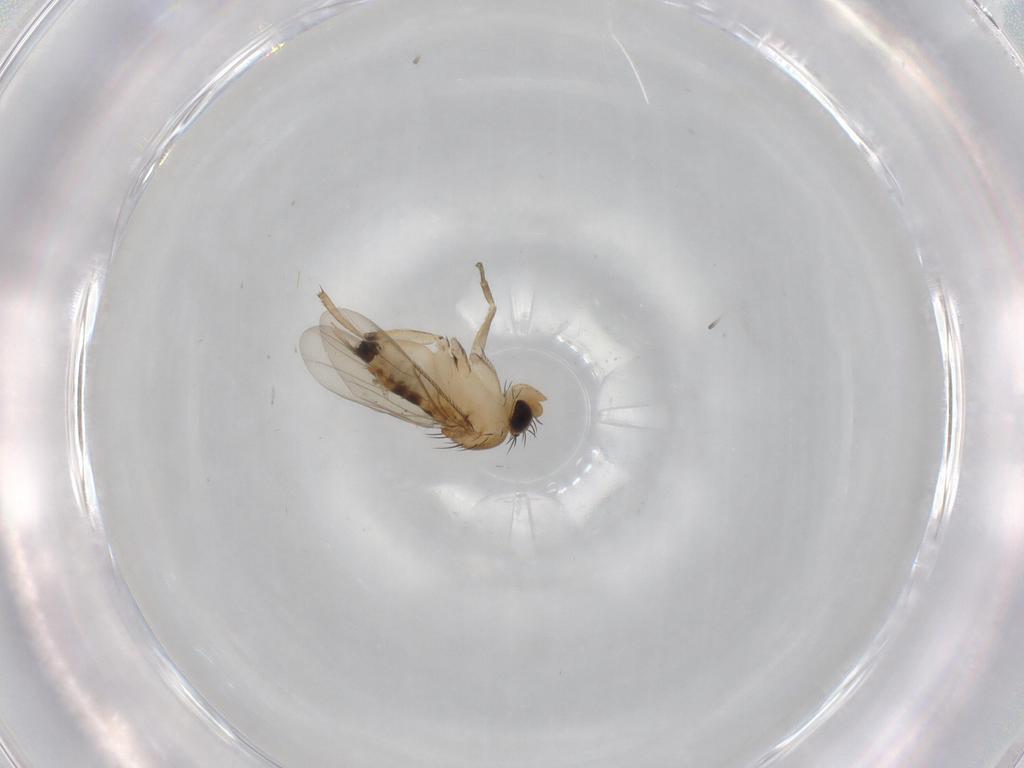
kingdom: Animalia
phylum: Arthropoda
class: Insecta
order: Diptera
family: Phoridae
